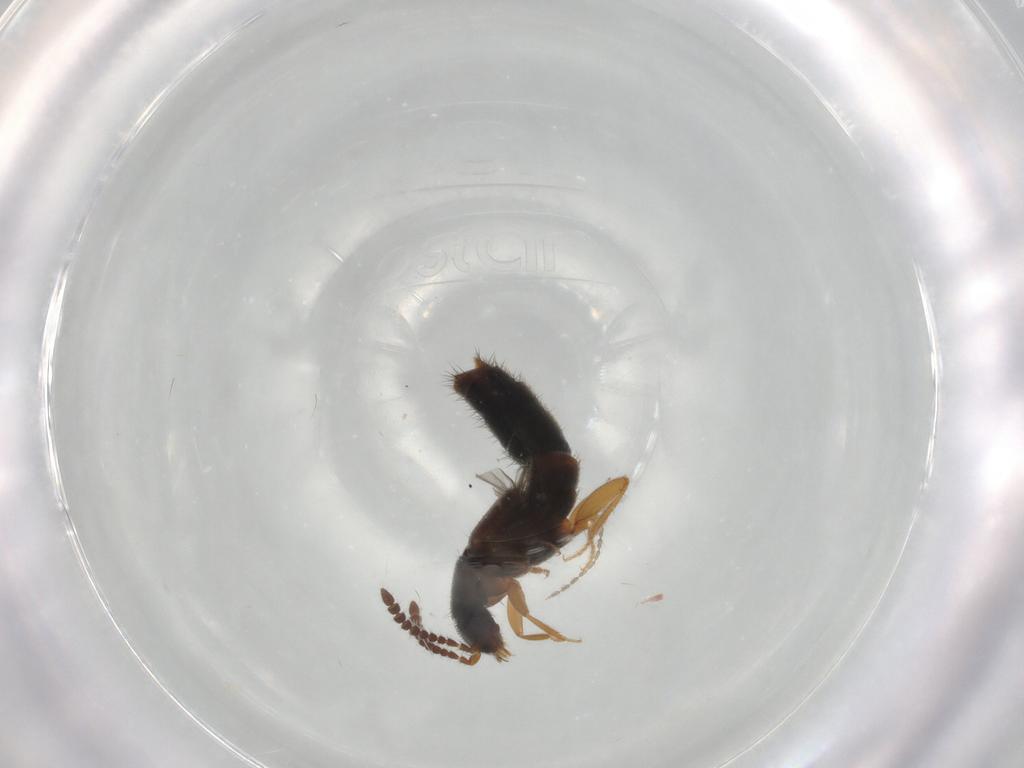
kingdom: Animalia
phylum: Arthropoda
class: Insecta
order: Coleoptera
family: Staphylinidae
